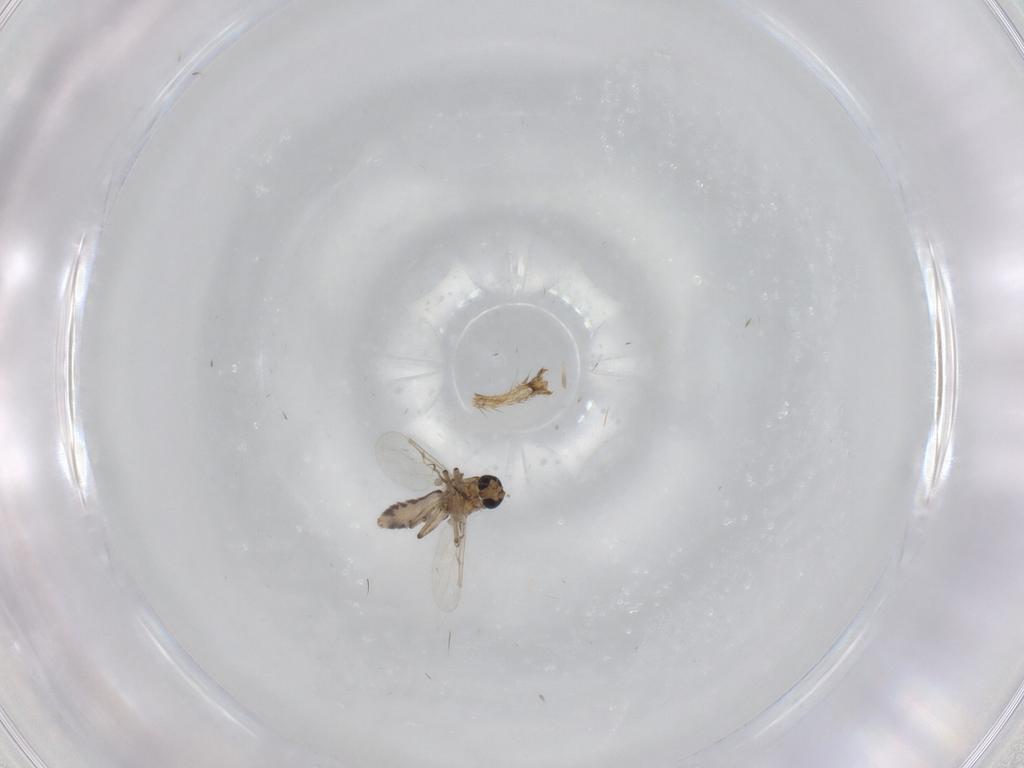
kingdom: Animalia
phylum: Arthropoda
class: Insecta
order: Diptera
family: Ceratopogonidae
